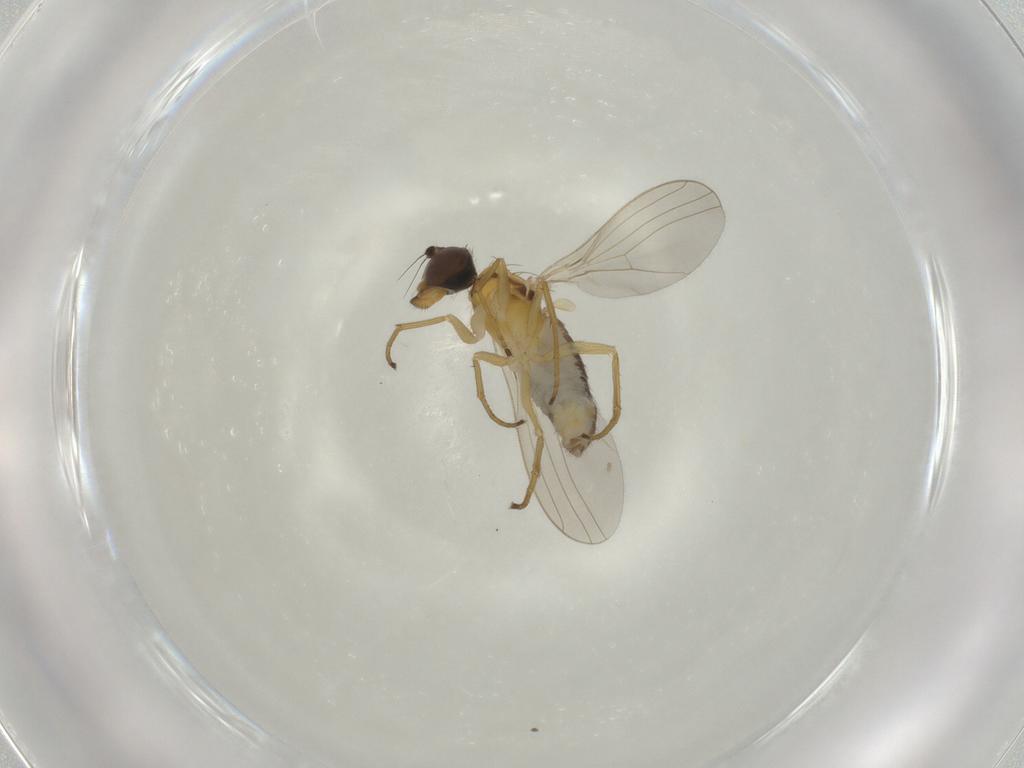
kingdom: Animalia
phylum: Arthropoda
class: Insecta
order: Diptera
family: Dolichopodidae
